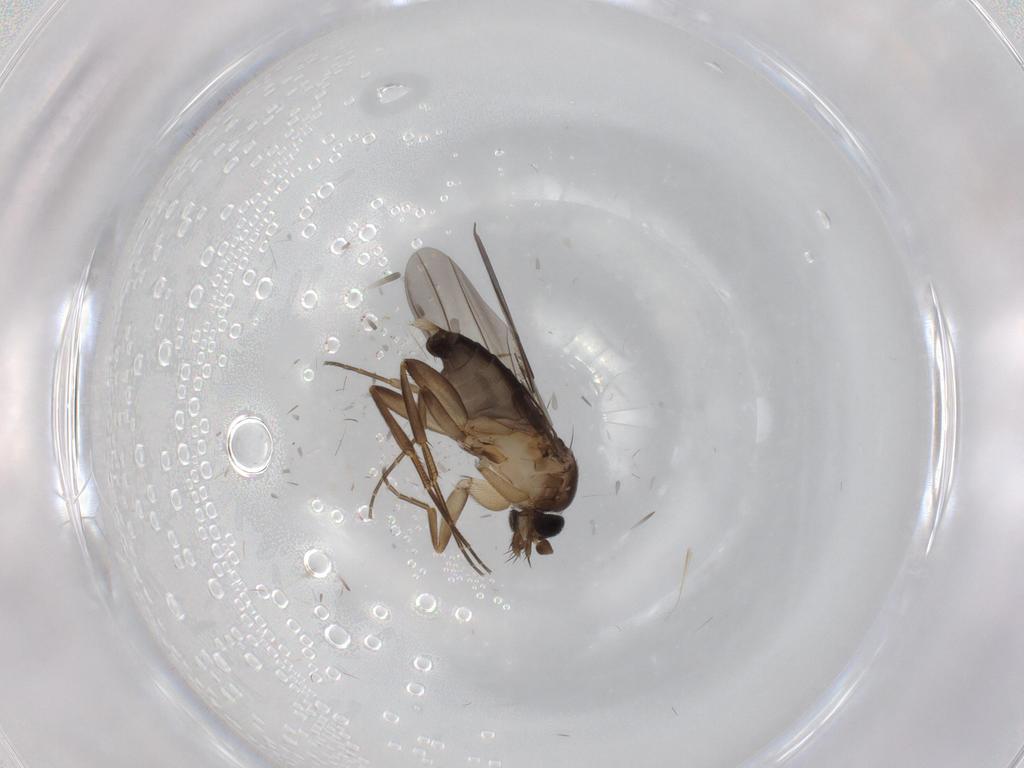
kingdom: Animalia
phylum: Arthropoda
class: Insecta
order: Diptera
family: Phoridae
